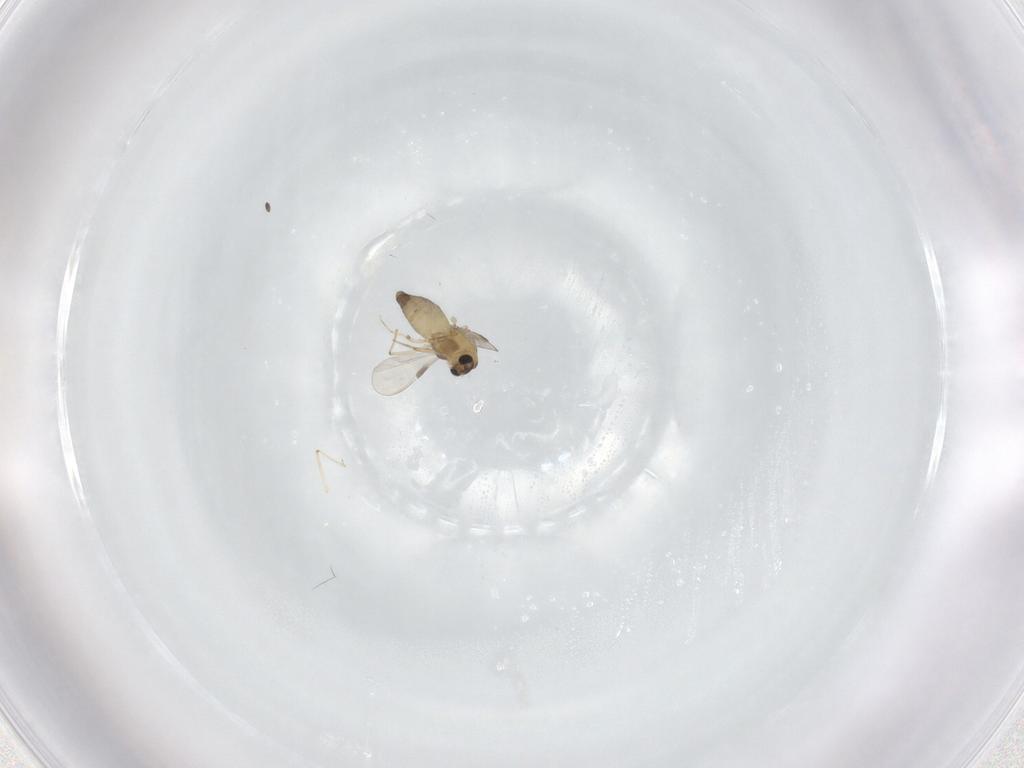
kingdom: Animalia
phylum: Arthropoda
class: Insecta
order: Diptera
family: Chironomidae
